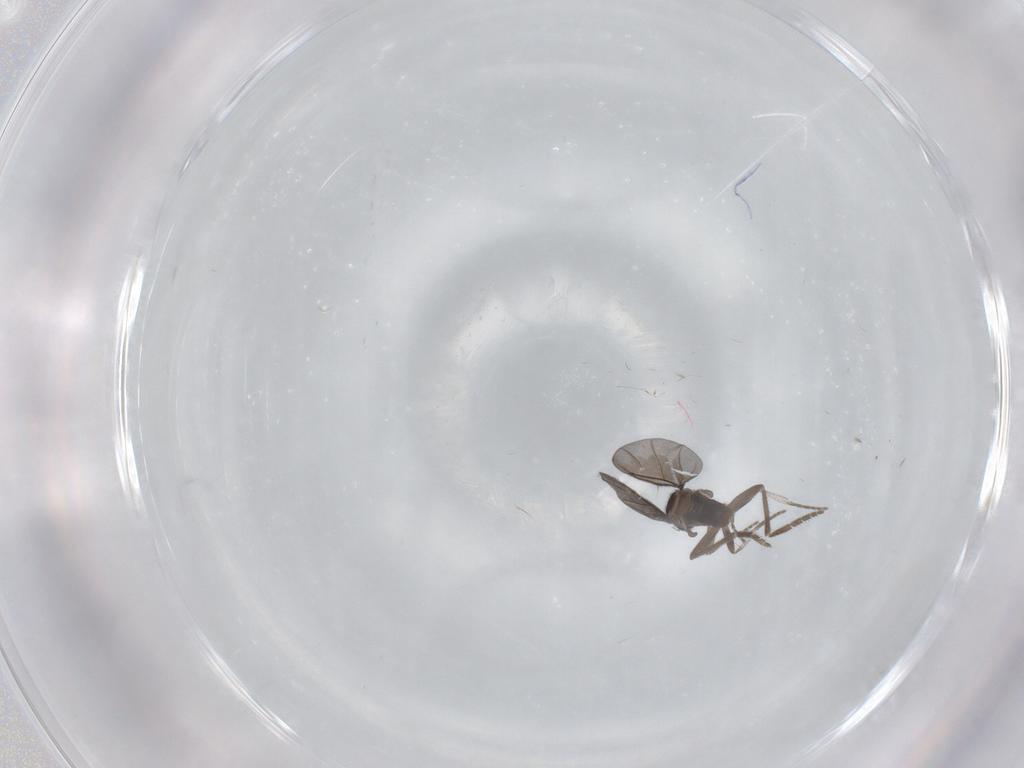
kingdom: Animalia
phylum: Arthropoda
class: Insecta
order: Diptera
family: Phoridae
